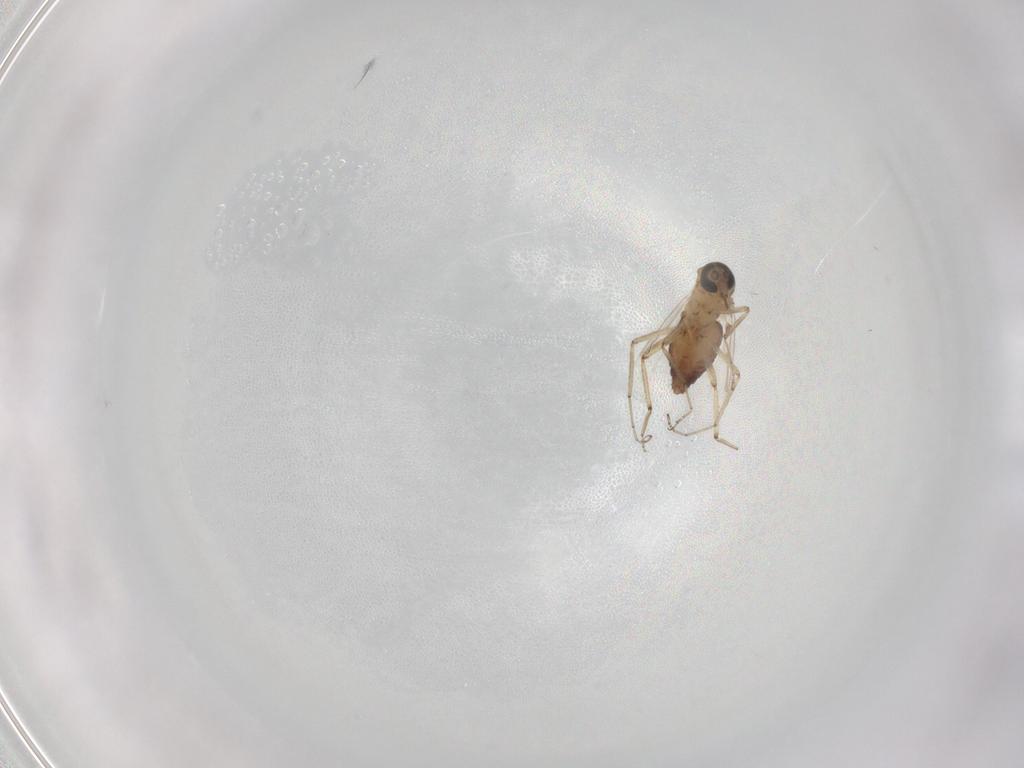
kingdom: Animalia
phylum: Arthropoda
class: Insecta
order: Diptera
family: Ceratopogonidae
